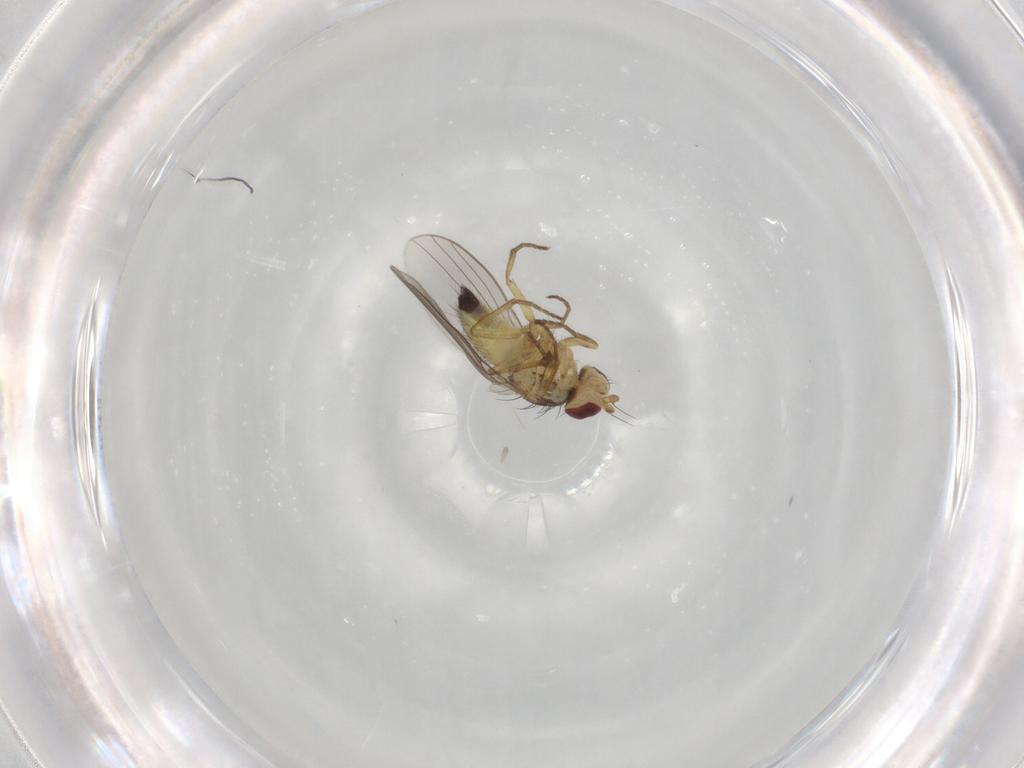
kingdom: Animalia
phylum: Arthropoda
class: Insecta
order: Diptera
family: Agromyzidae
